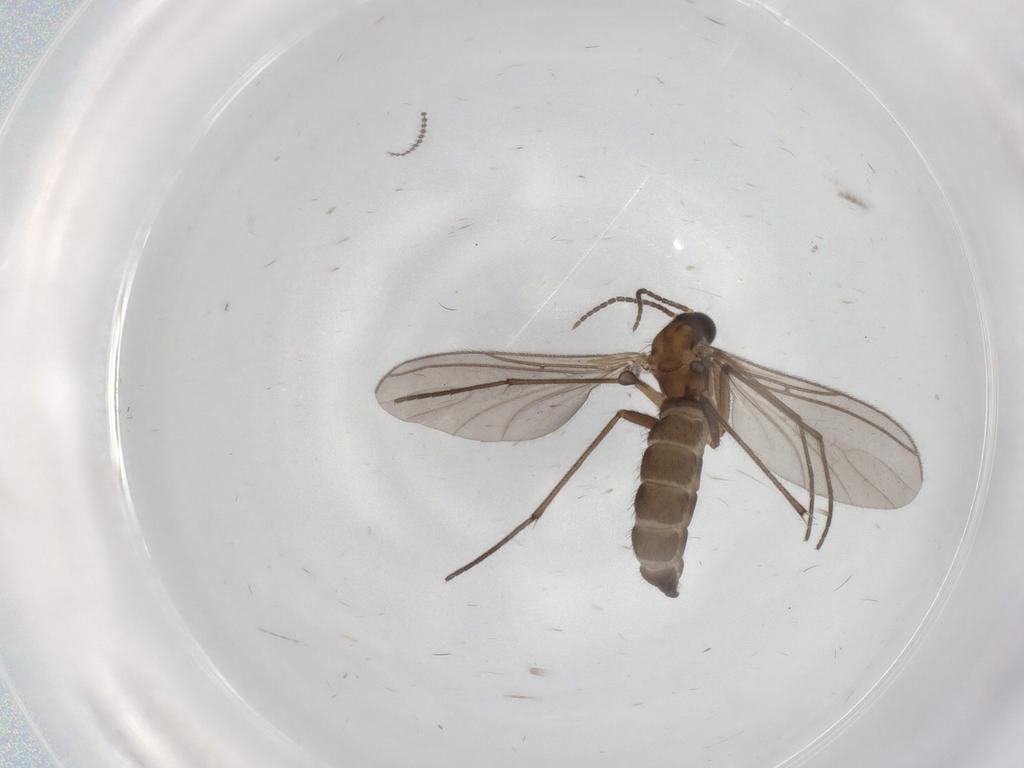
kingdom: Animalia
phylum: Arthropoda
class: Insecta
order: Diptera
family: Sciaridae
